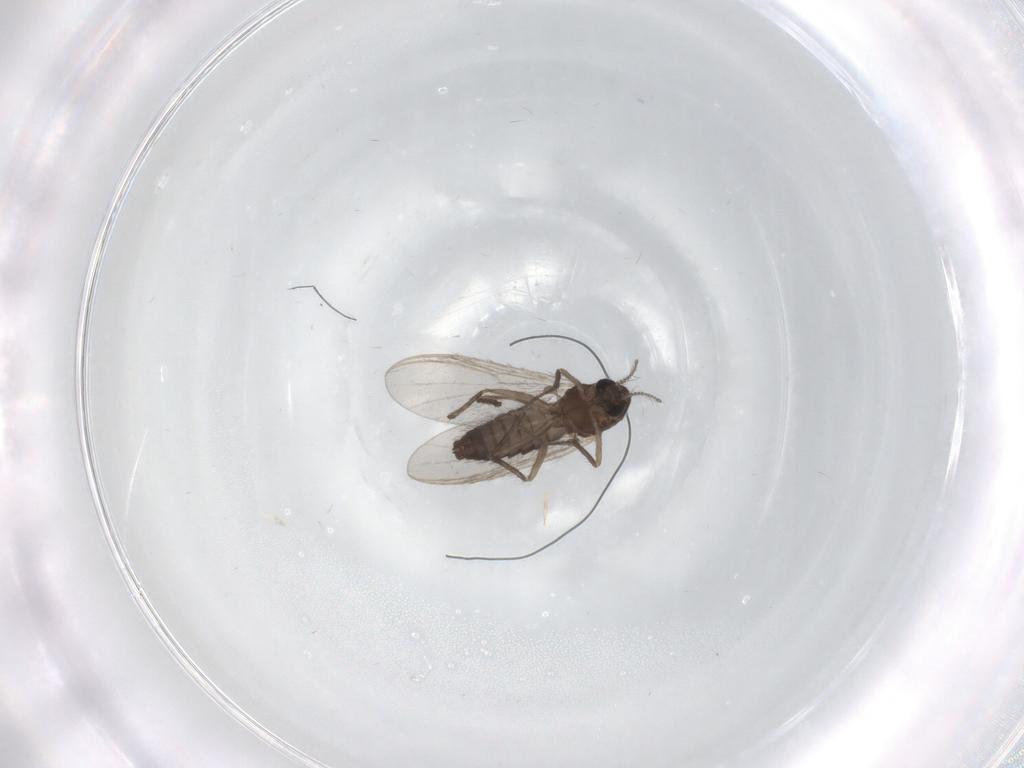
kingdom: Animalia
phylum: Arthropoda
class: Insecta
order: Diptera
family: Chironomidae
